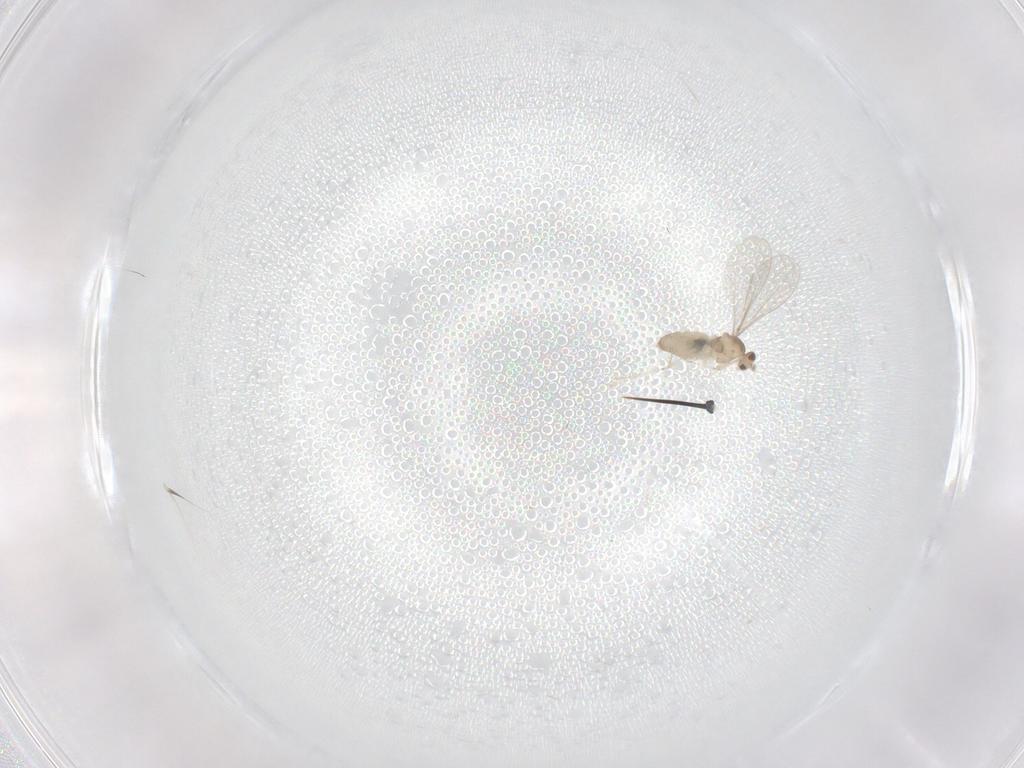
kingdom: Animalia
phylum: Arthropoda
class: Insecta
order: Diptera
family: Cecidomyiidae
